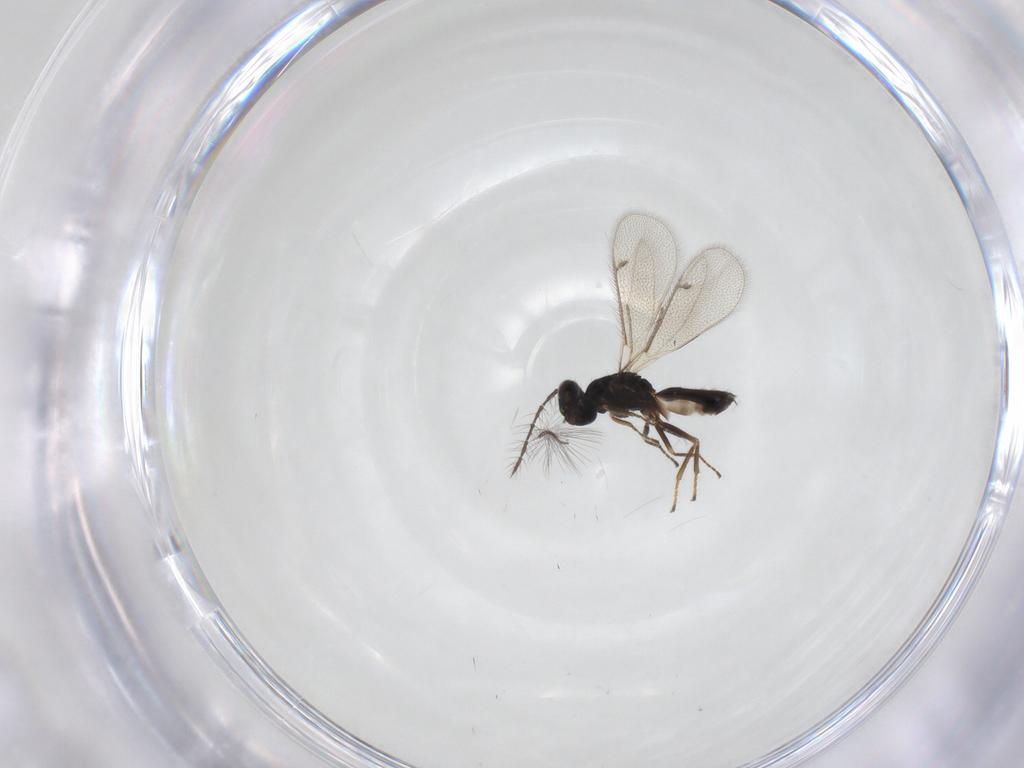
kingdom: Animalia
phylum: Arthropoda
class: Insecta
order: Hymenoptera
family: Eulophidae
